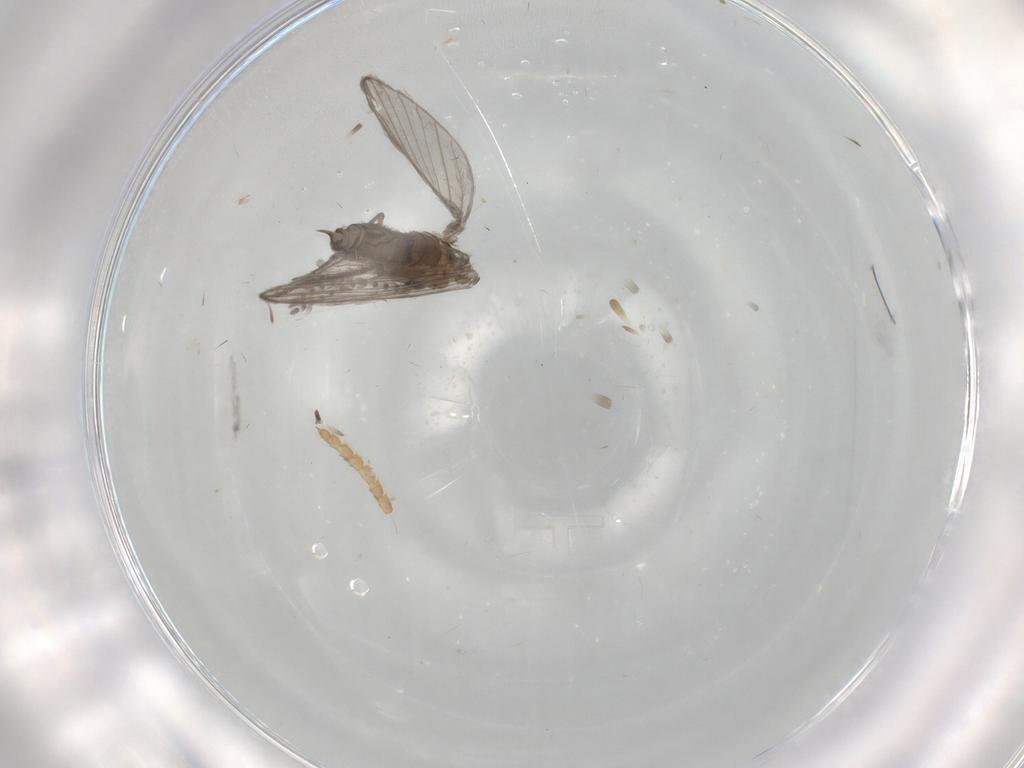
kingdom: Animalia
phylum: Arthropoda
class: Insecta
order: Diptera
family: Psychodidae
